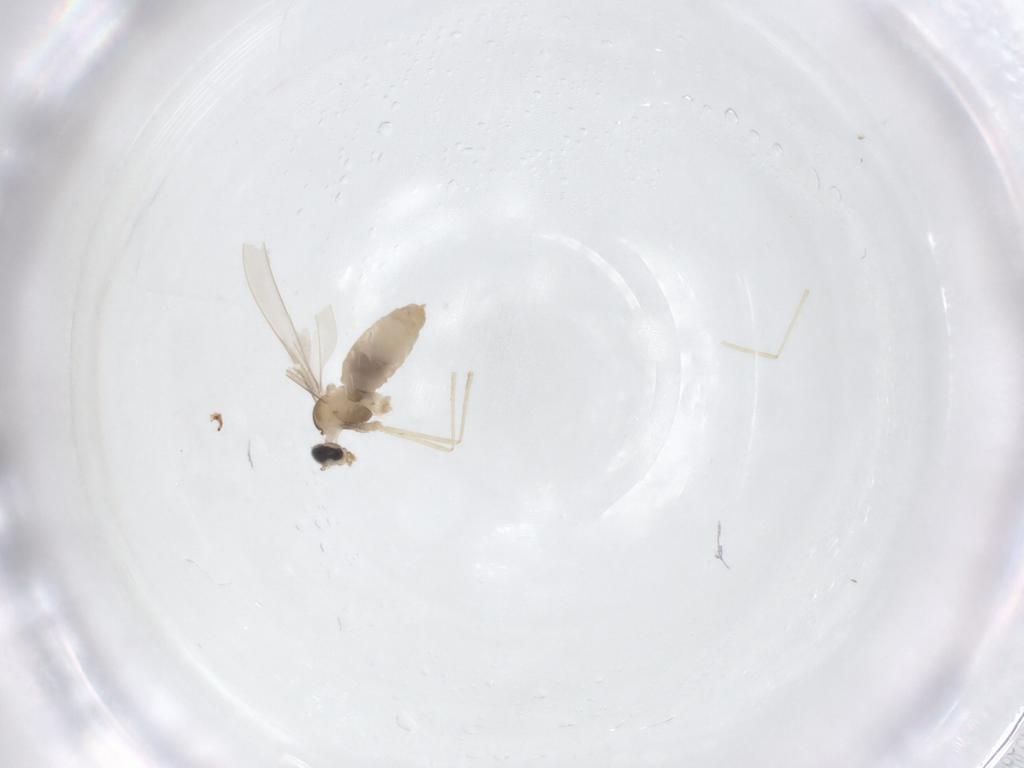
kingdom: Animalia
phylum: Arthropoda
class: Insecta
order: Diptera
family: Cecidomyiidae
